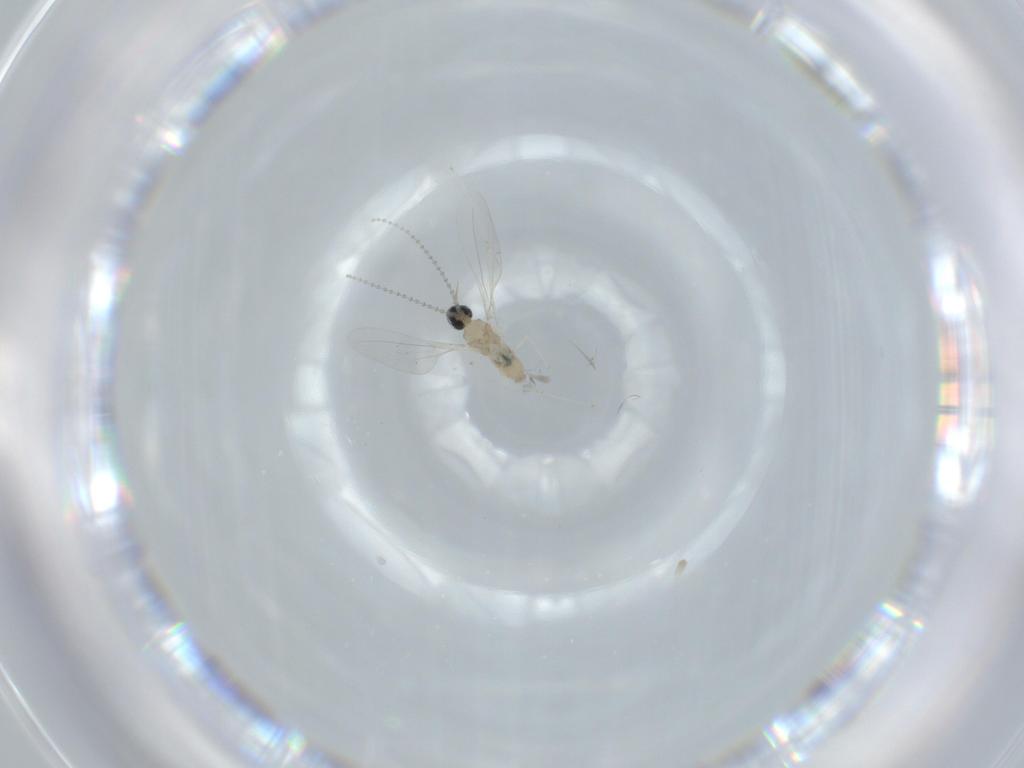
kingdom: Animalia
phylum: Arthropoda
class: Insecta
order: Diptera
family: Cecidomyiidae
